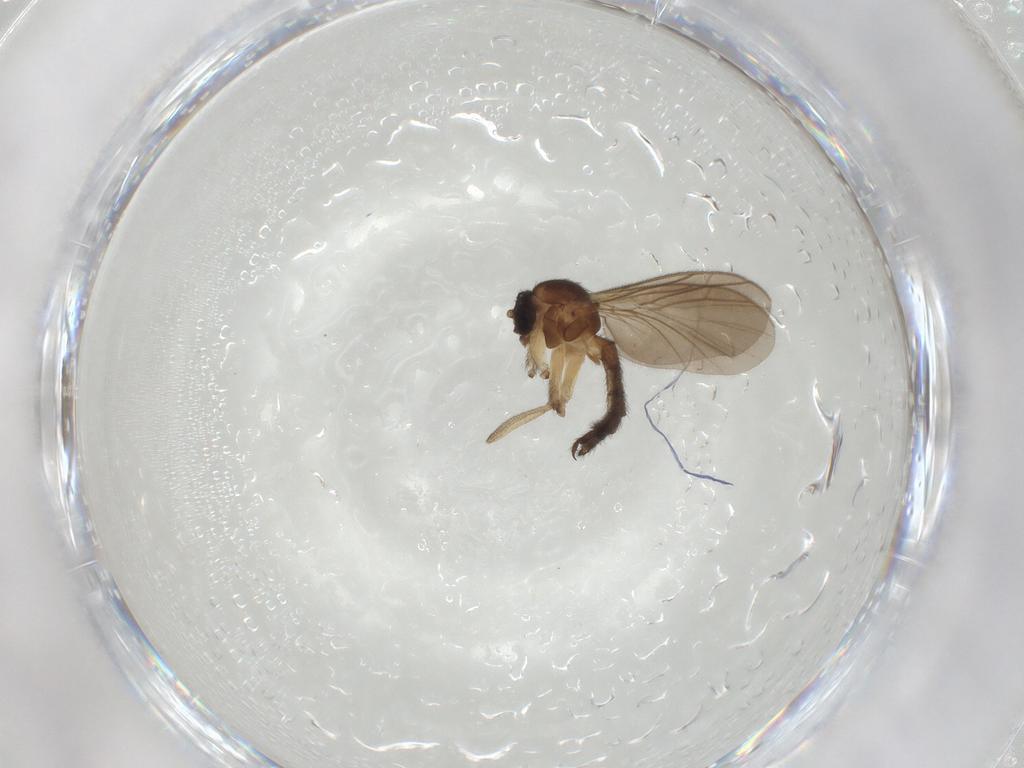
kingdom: Animalia
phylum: Arthropoda
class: Insecta
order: Diptera
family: Keroplatidae
